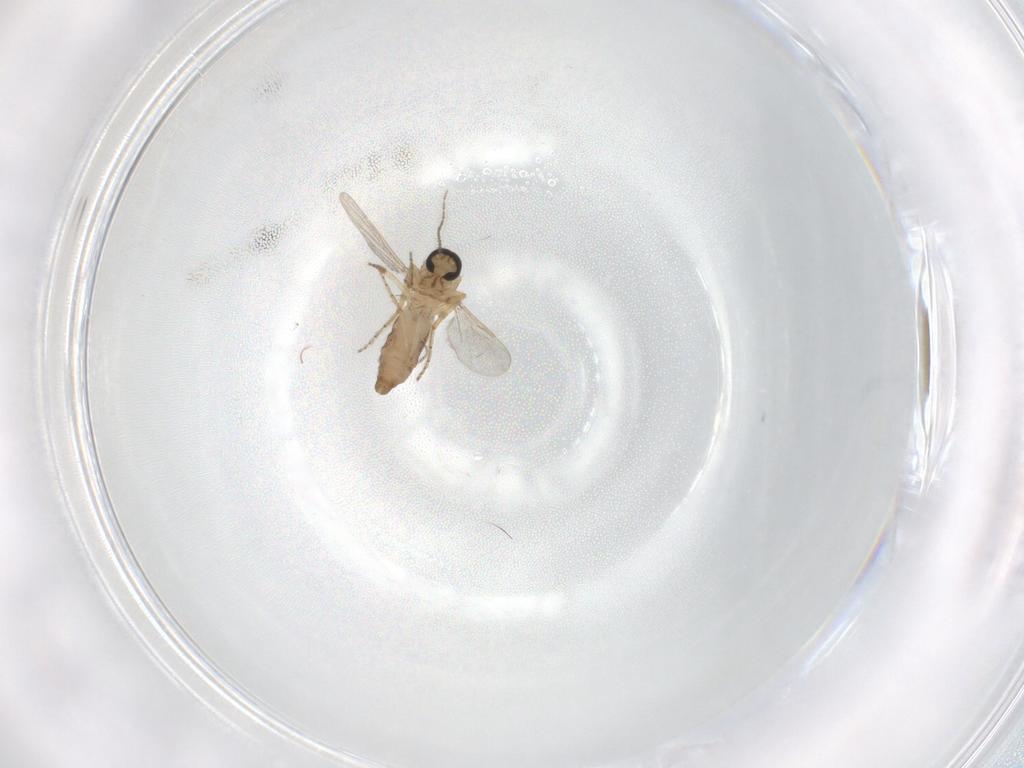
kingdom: Animalia
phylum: Arthropoda
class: Insecta
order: Diptera
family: Ceratopogonidae
